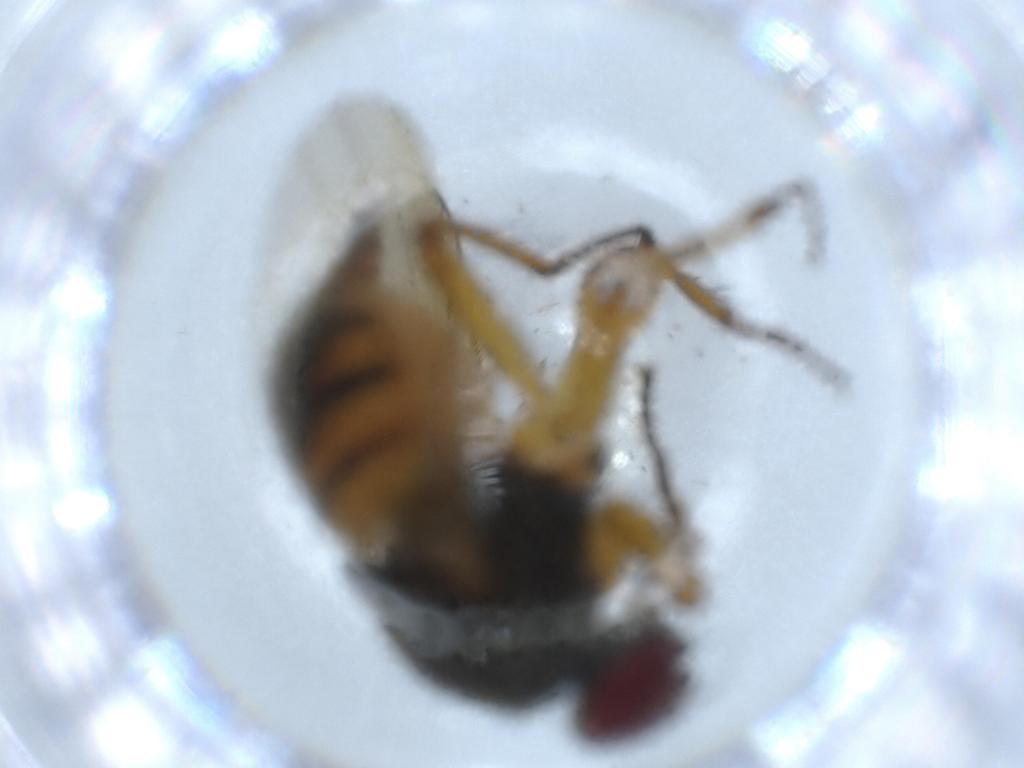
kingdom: Animalia
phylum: Arthropoda
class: Insecta
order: Diptera
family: Muscidae
